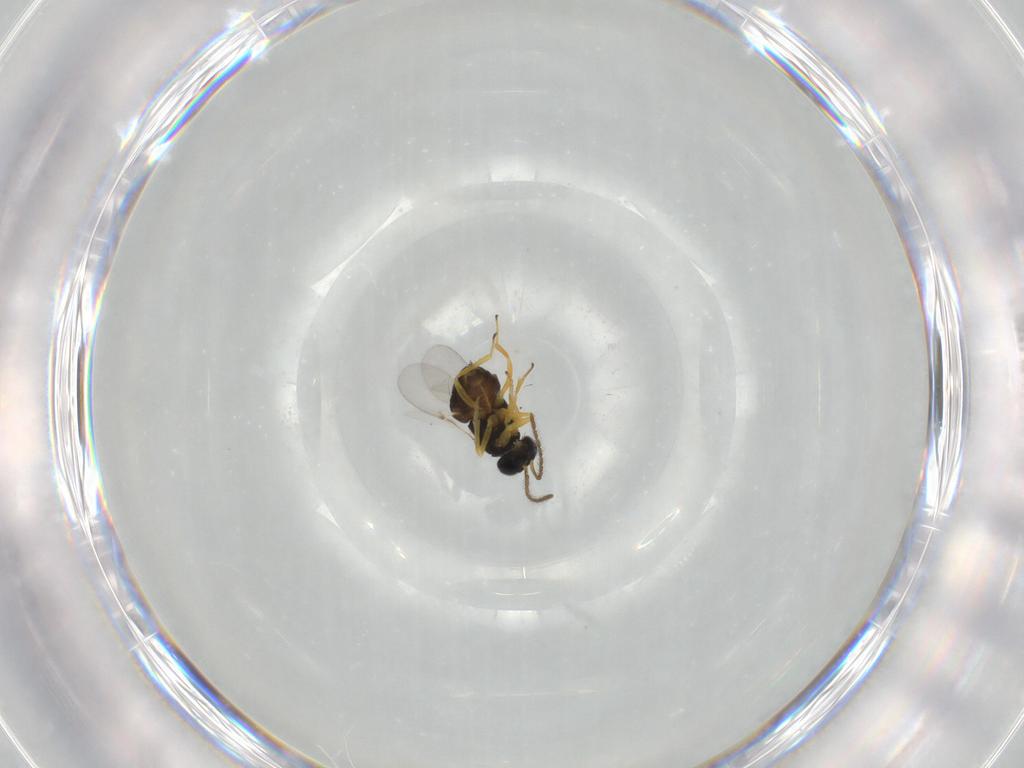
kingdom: Animalia
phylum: Arthropoda
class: Insecta
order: Hymenoptera
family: Encyrtidae
